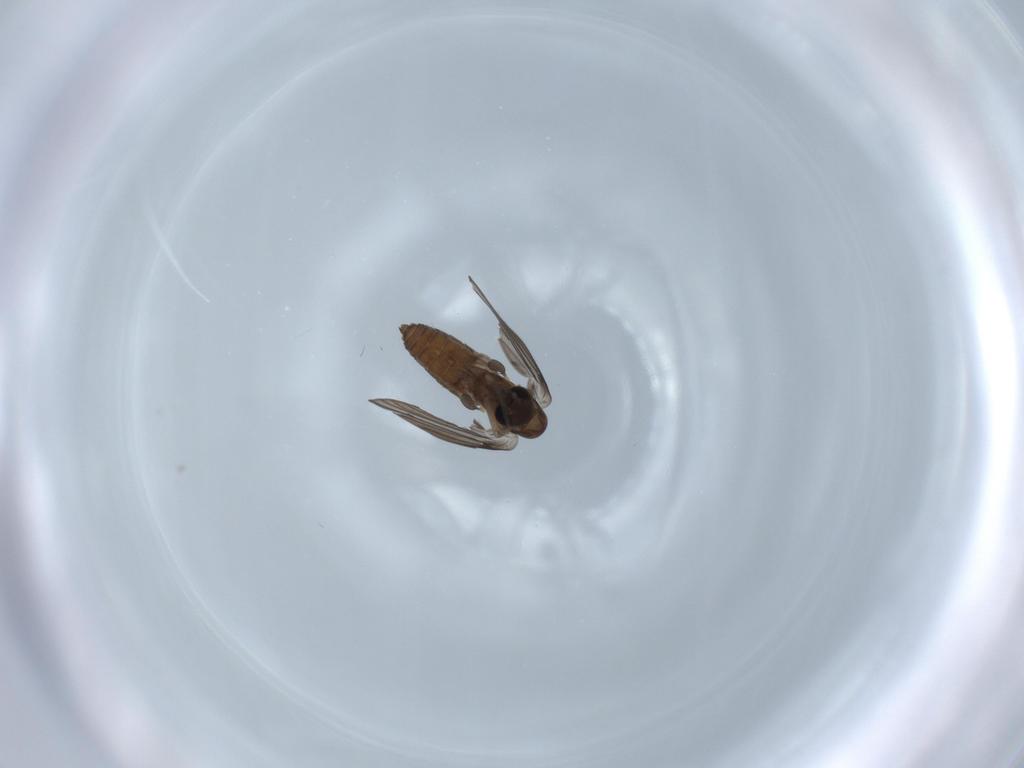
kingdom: Animalia
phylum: Arthropoda
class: Insecta
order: Diptera
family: Psychodidae
